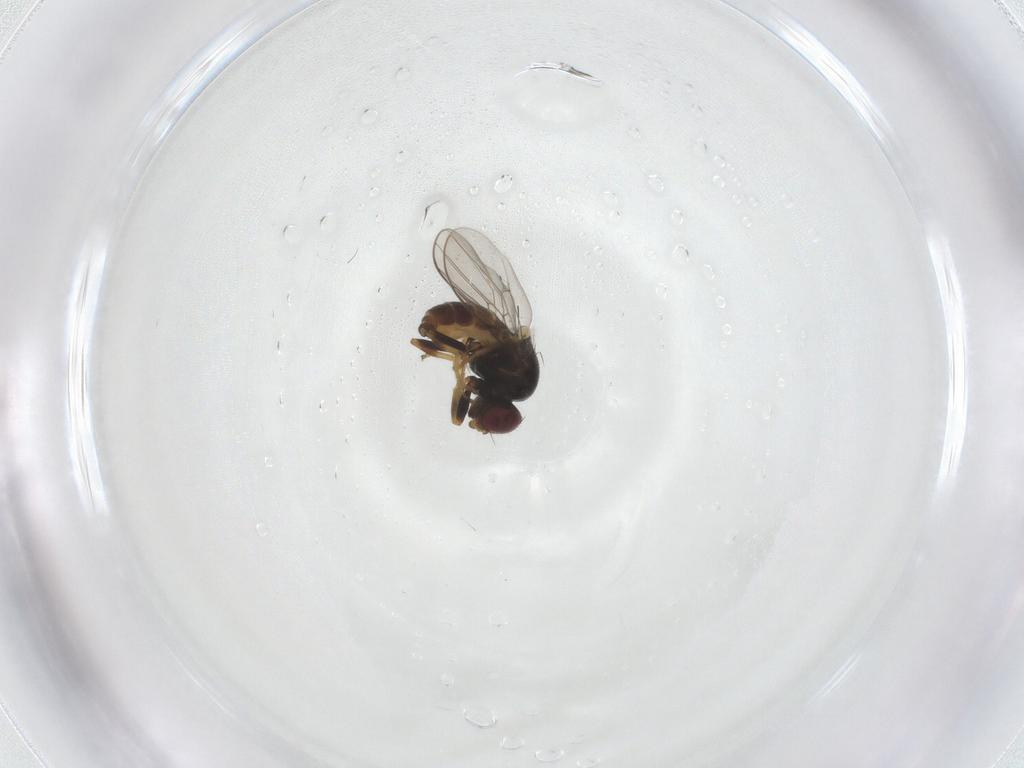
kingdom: Animalia
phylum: Arthropoda
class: Insecta
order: Diptera
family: Chloropidae
